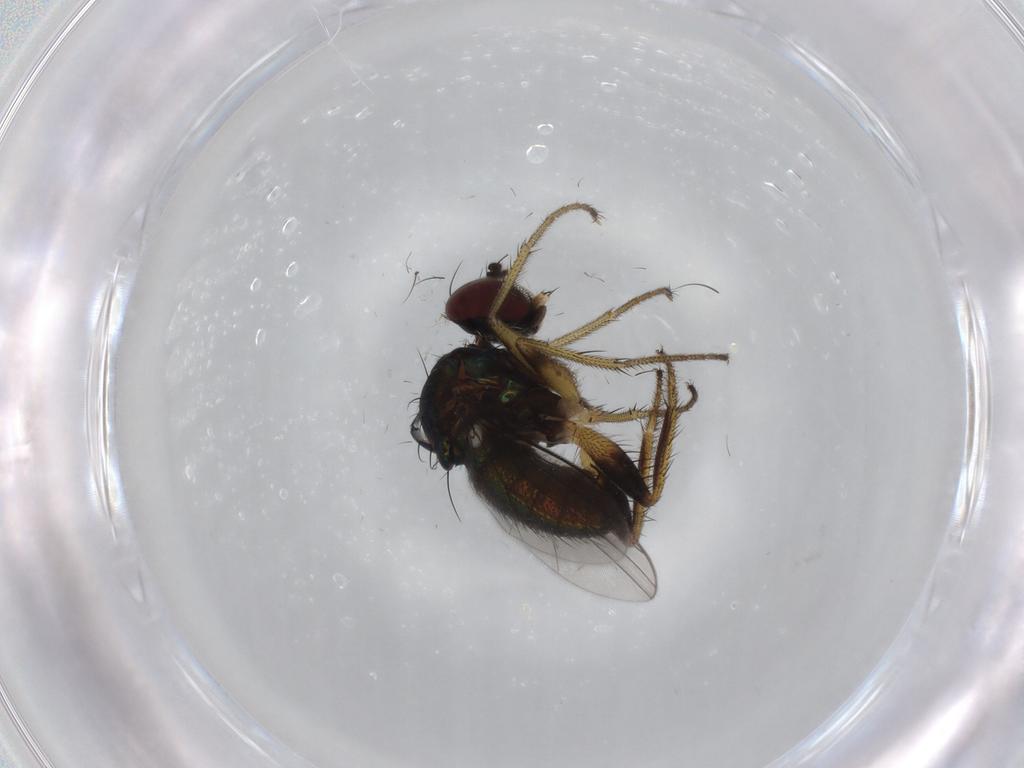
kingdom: Animalia
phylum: Arthropoda
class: Insecta
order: Diptera
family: Dolichopodidae
